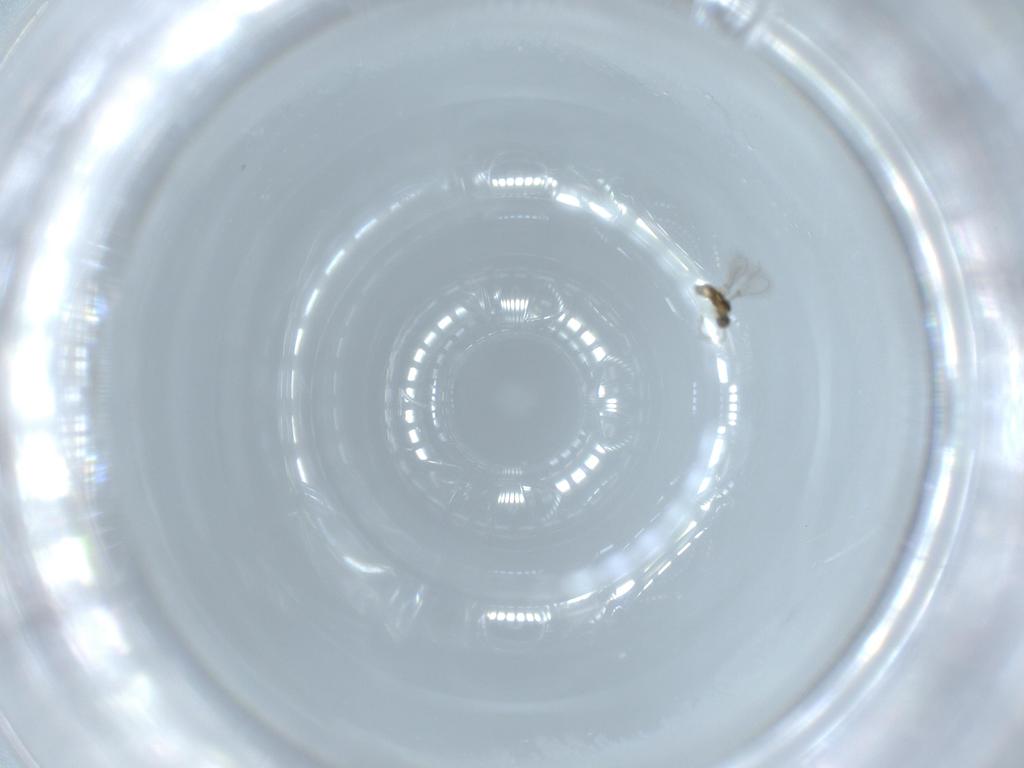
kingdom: Animalia
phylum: Arthropoda
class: Insecta
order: Hymenoptera
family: Mymaridae
